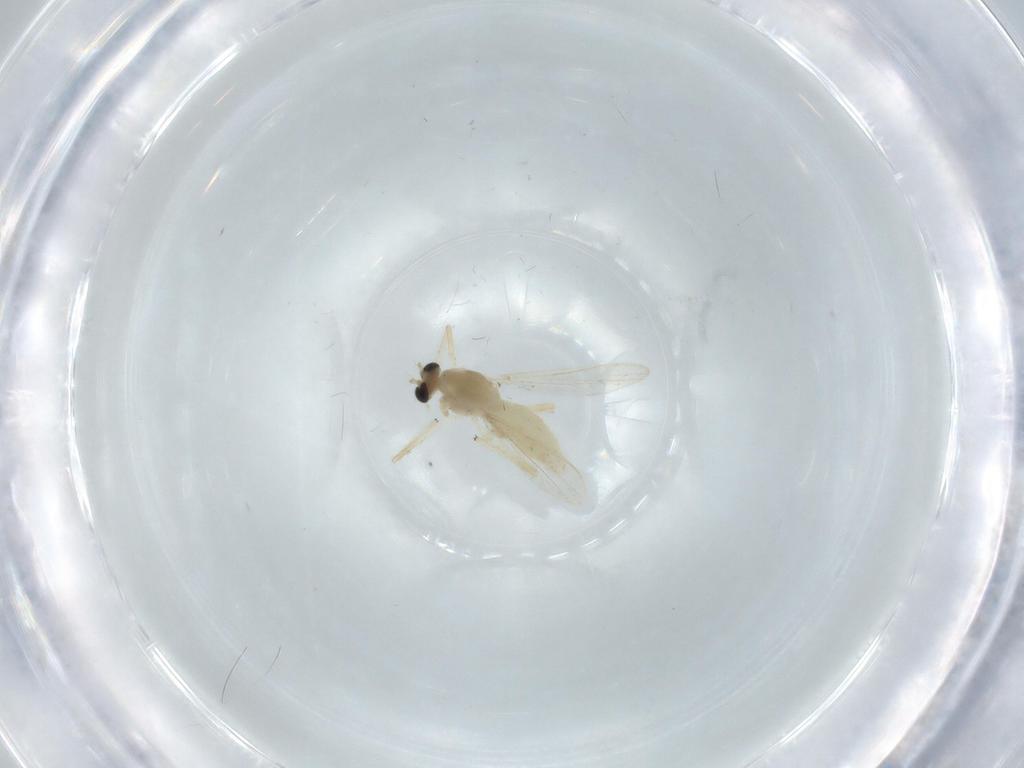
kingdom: Animalia
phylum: Arthropoda
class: Insecta
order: Diptera
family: Chironomidae
